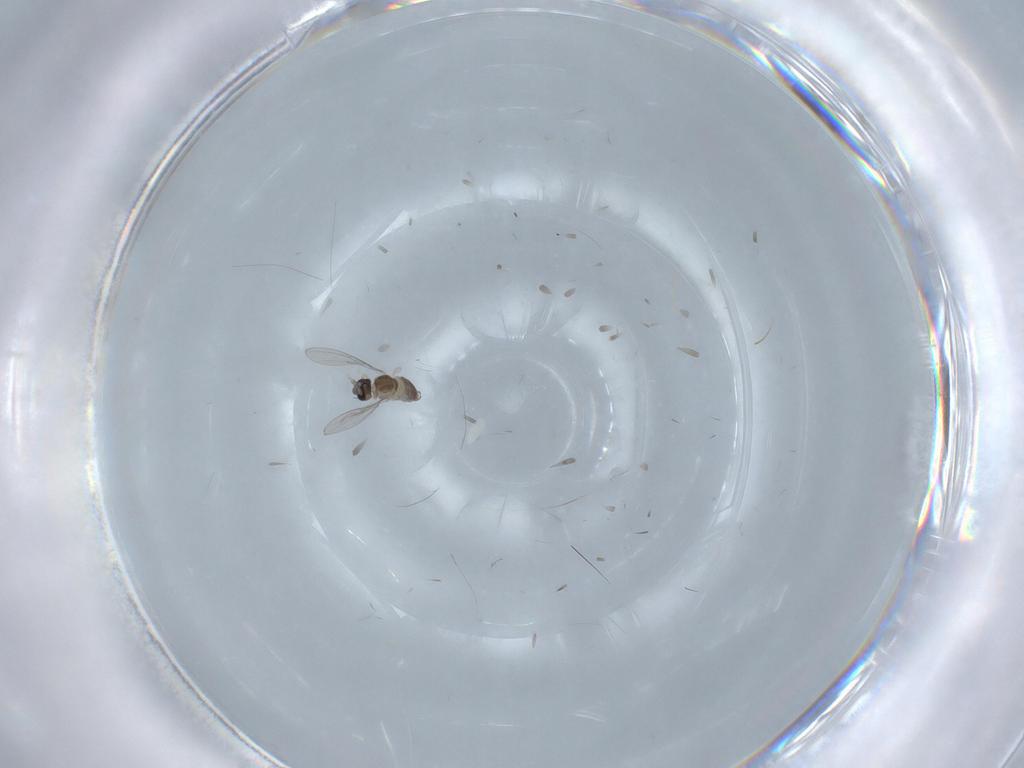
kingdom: Animalia
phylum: Arthropoda
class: Insecta
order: Diptera
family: Cecidomyiidae
